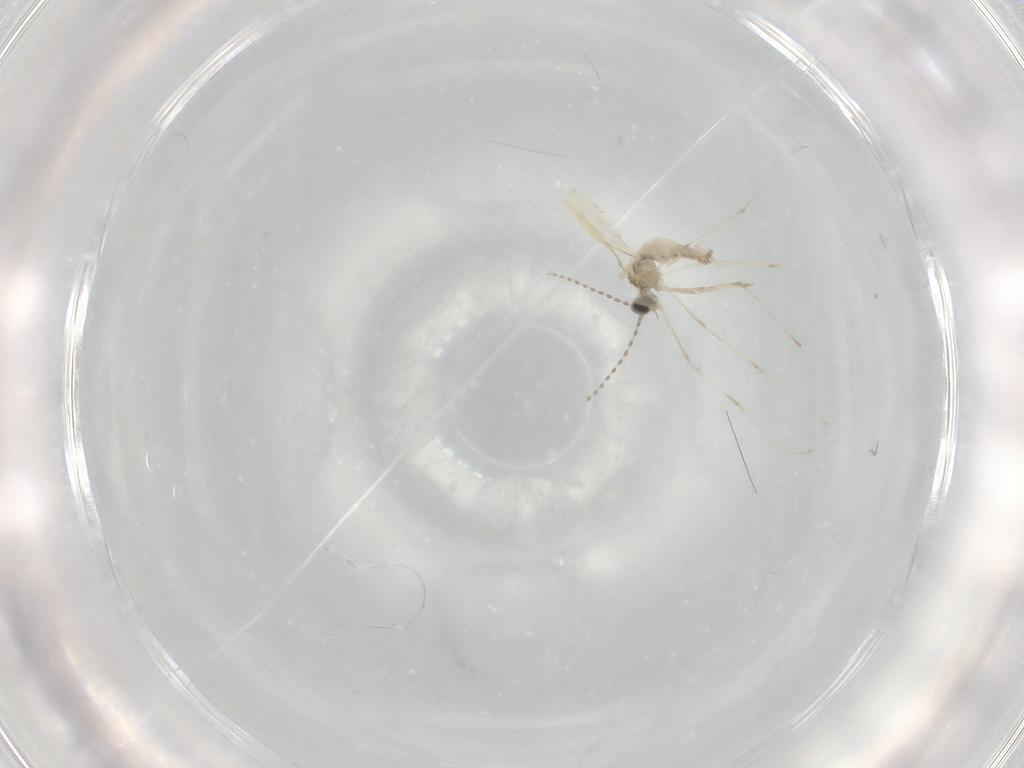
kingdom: Animalia
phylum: Arthropoda
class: Insecta
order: Diptera
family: Cecidomyiidae
